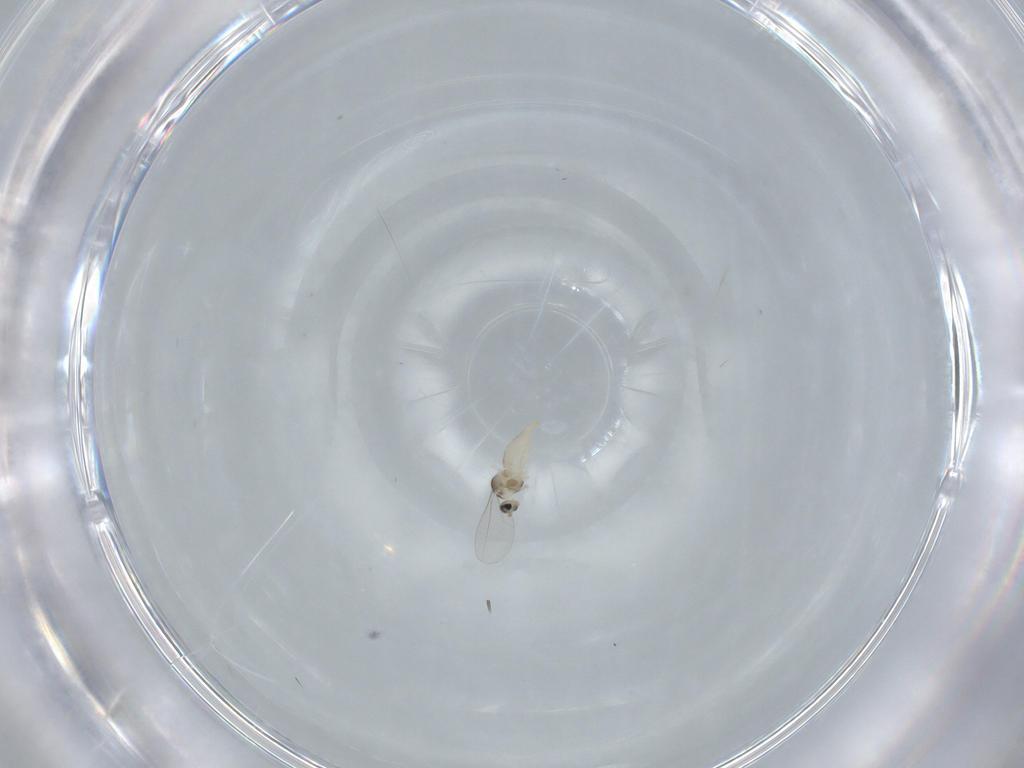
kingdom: Animalia
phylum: Arthropoda
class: Insecta
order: Diptera
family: Cecidomyiidae
